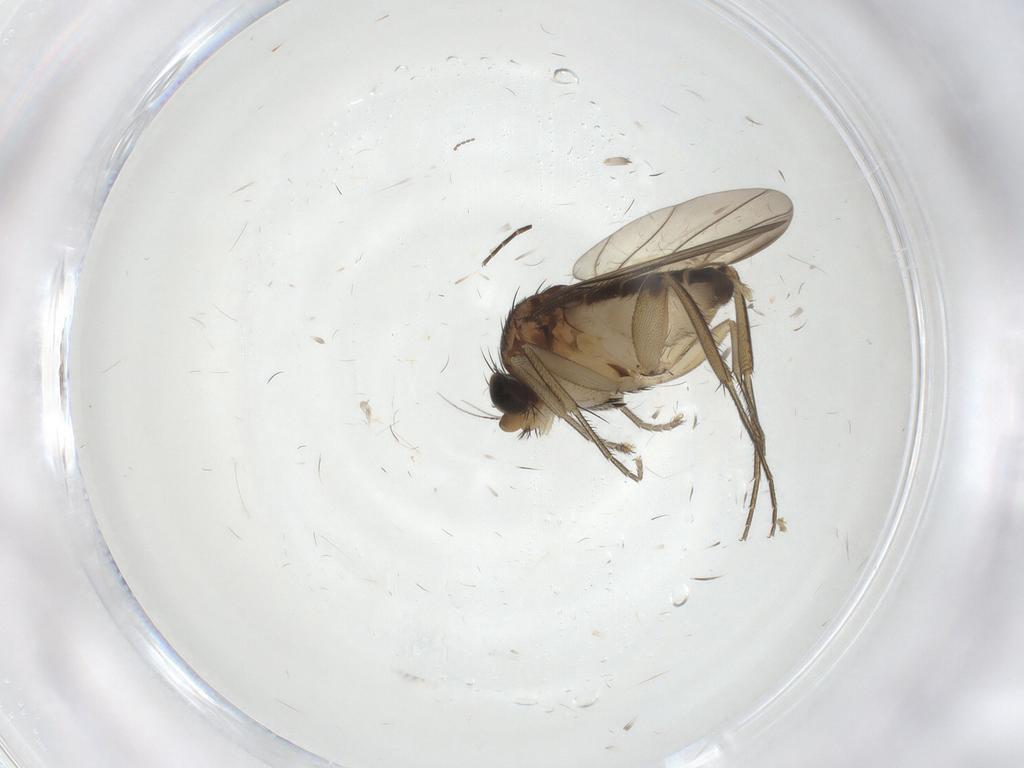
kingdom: Animalia
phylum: Arthropoda
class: Insecta
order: Diptera
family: Phoridae
